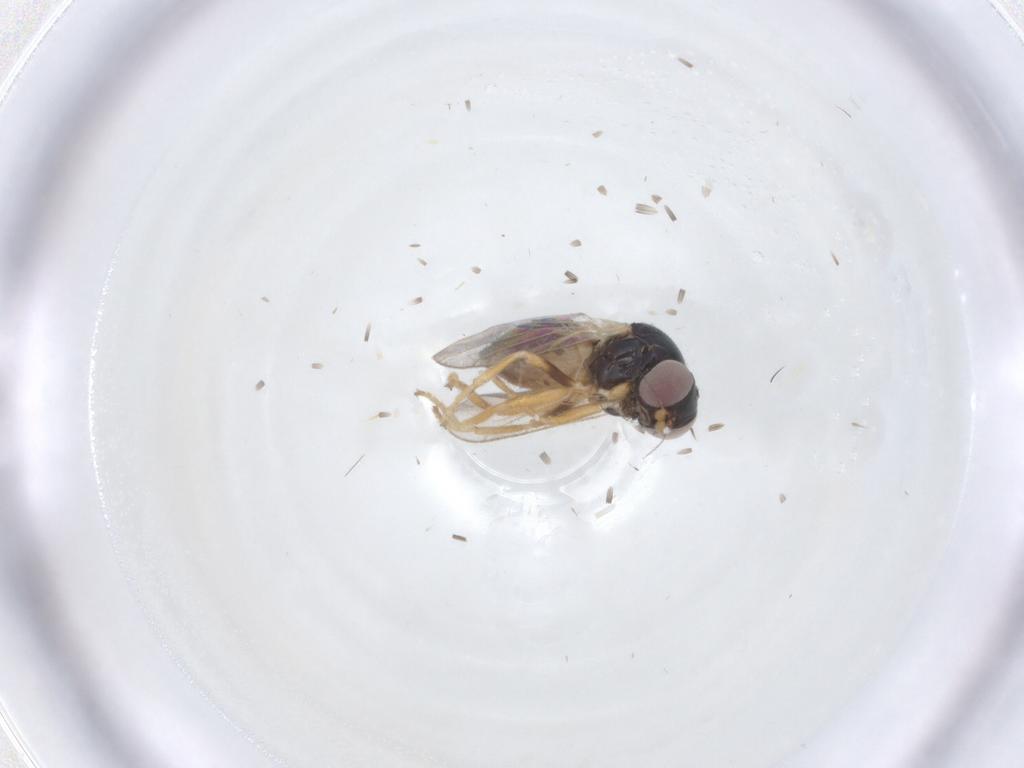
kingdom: Animalia
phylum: Arthropoda
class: Insecta
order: Diptera
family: Chloropidae
